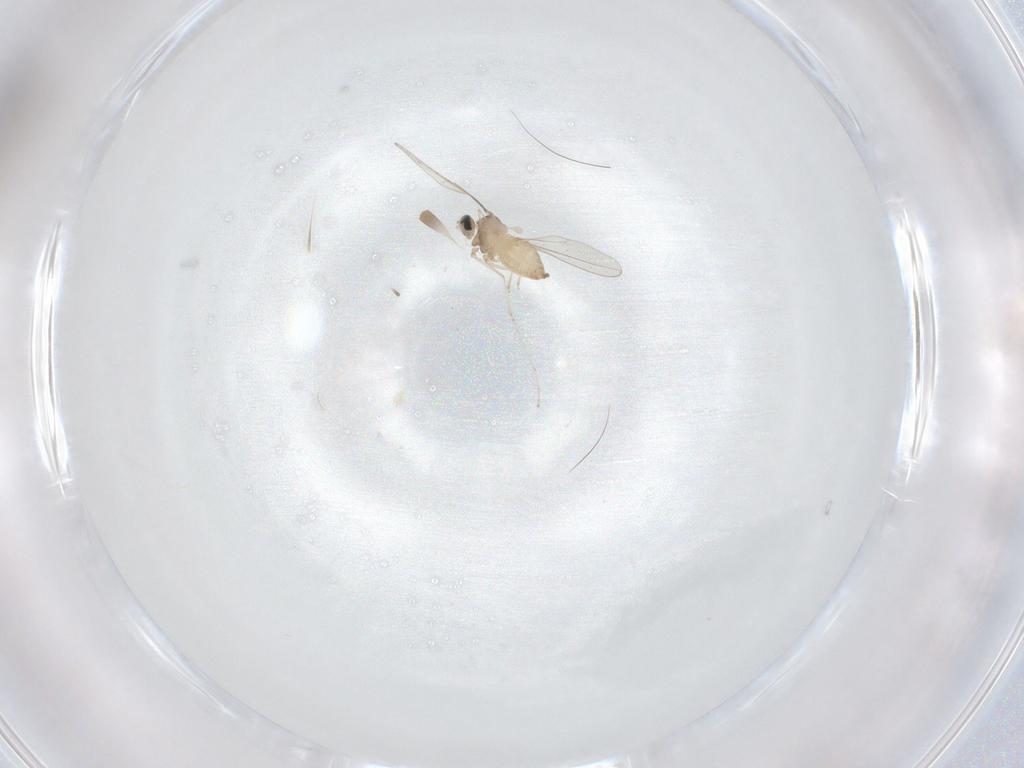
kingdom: Animalia
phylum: Arthropoda
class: Insecta
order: Diptera
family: Cecidomyiidae
